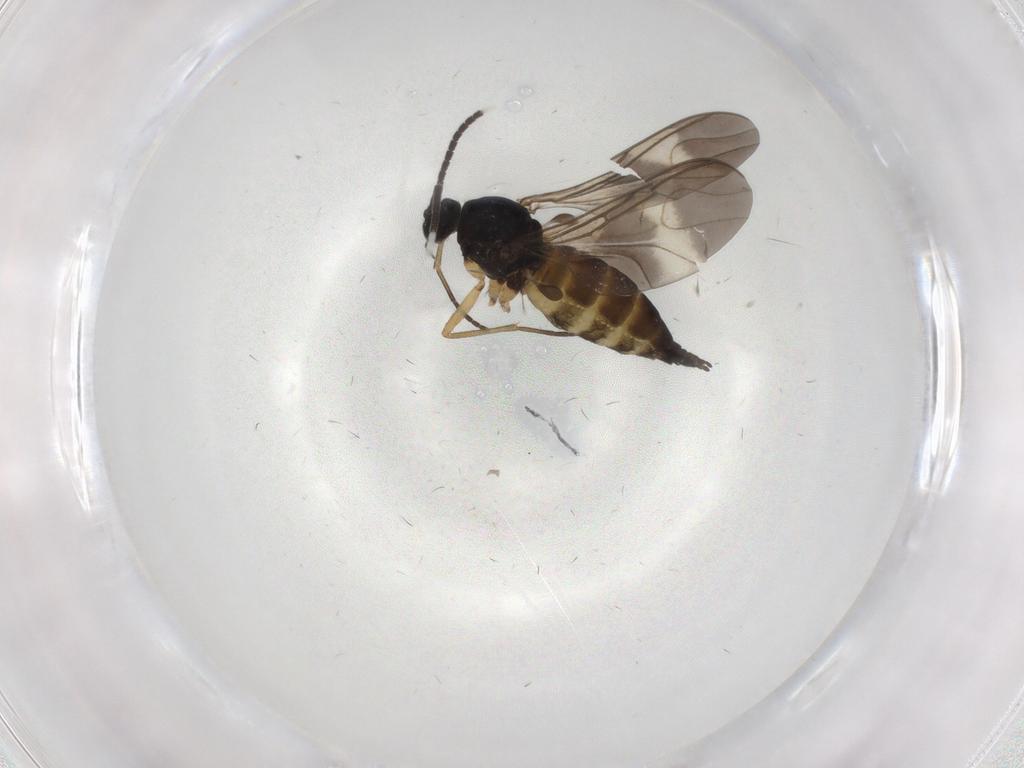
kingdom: Animalia
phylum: Arthropoda
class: Insecta
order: Diptera
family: Sciaridae
